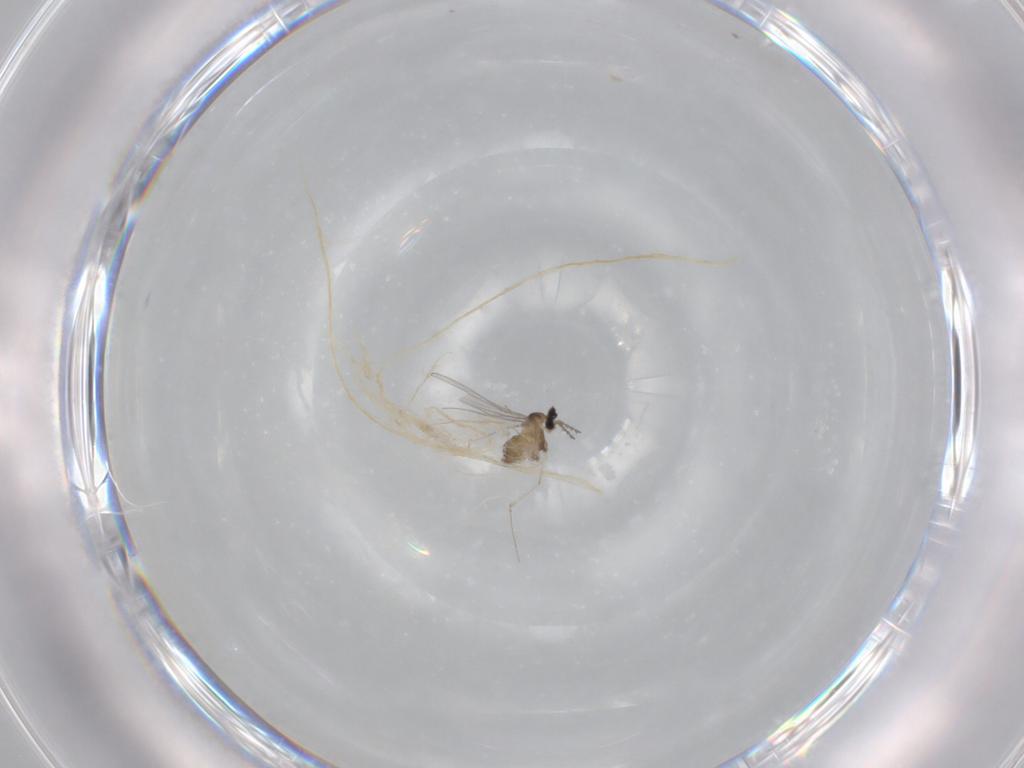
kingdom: Animalia
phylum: Arthropoda
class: Insecta
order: Diptera
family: Cecidomyiidae
